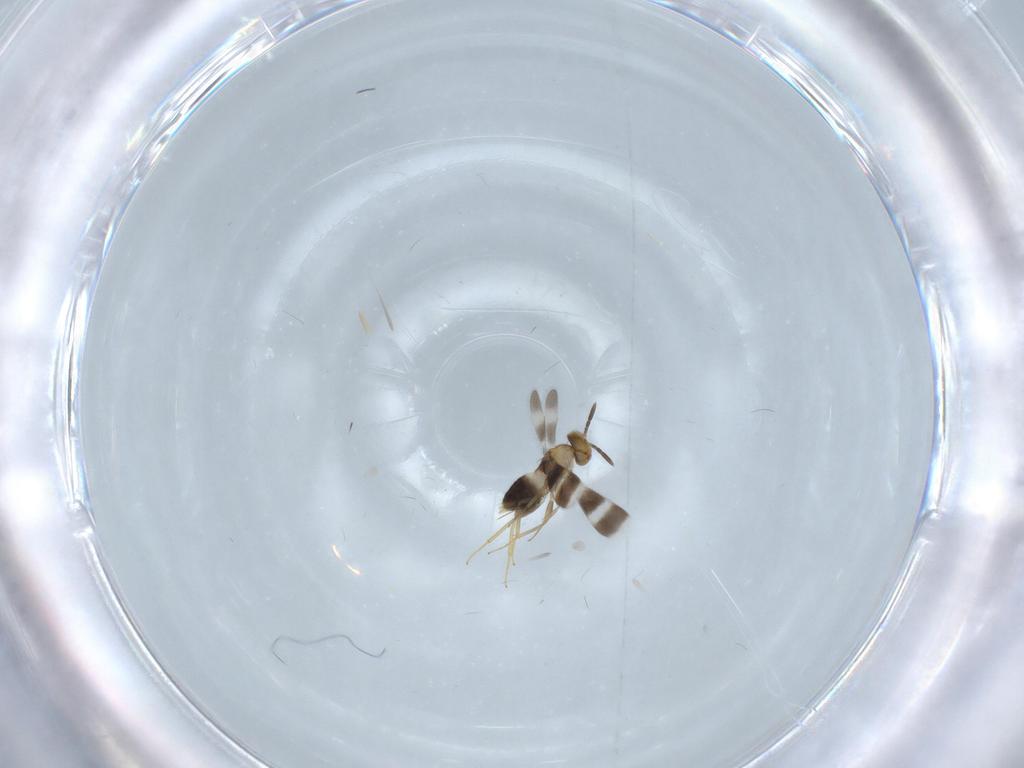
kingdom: Animalia
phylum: Arthropoda
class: Insecta
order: Hymenoptera
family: Aphelinidae
